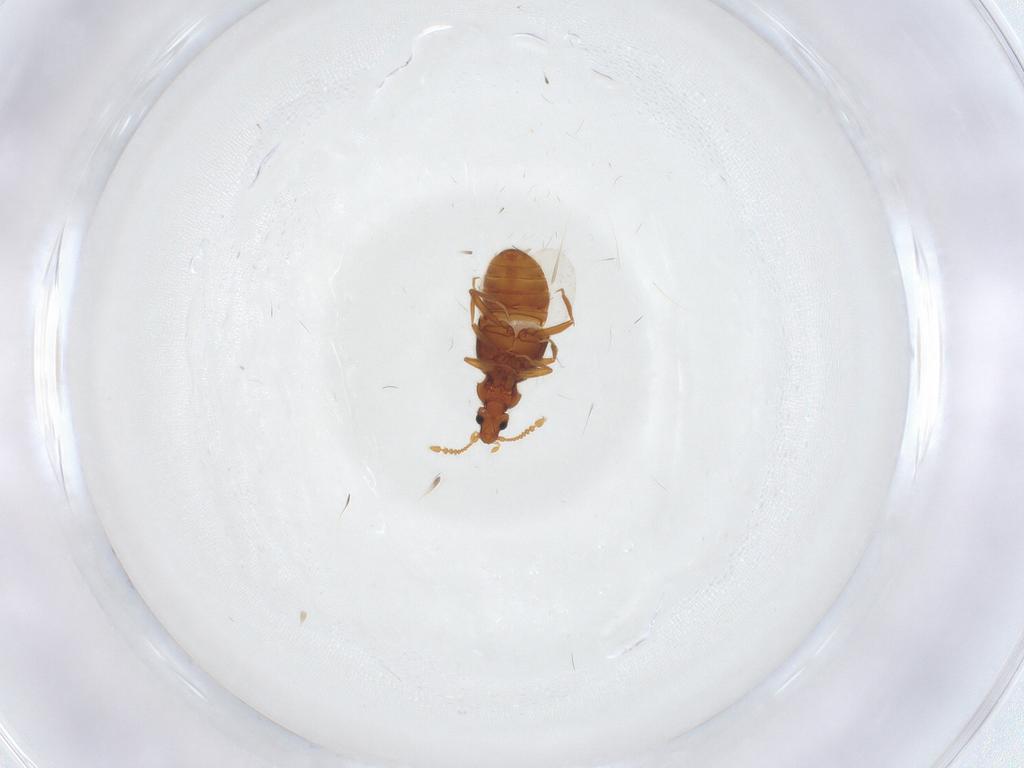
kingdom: Animalia
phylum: Arthropoda
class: Insecta
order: Coleoptera
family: Staphylinidae
